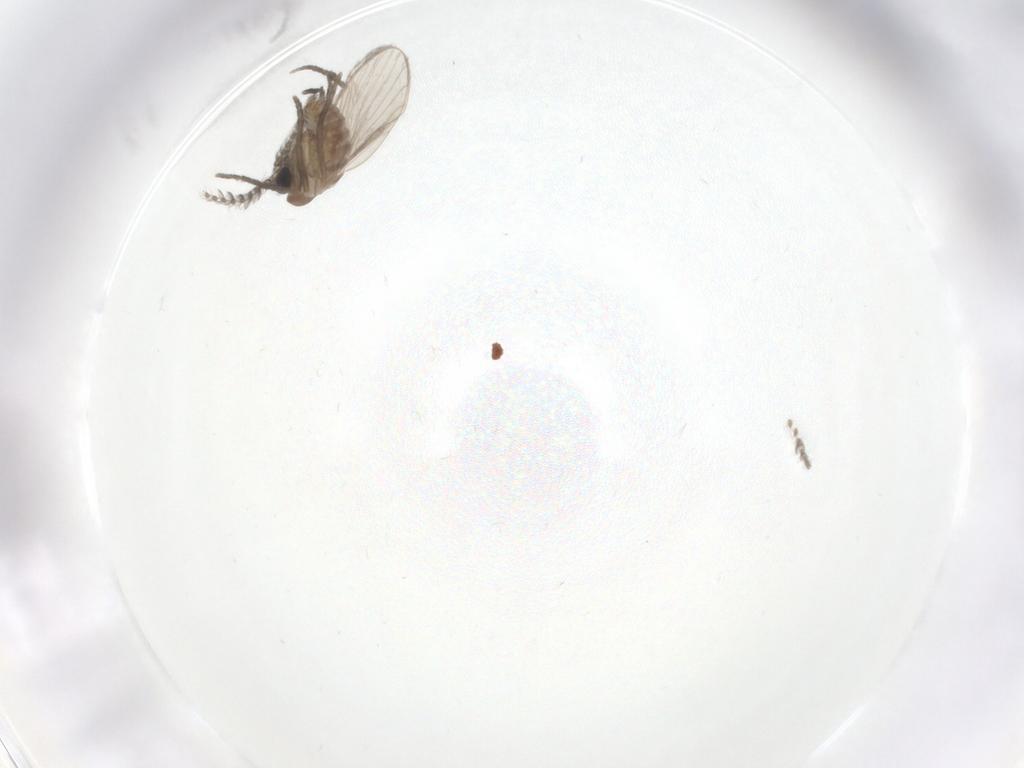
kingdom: Animalia
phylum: Arthropoda
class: Insecta
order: Diptera
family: Psychodidae
